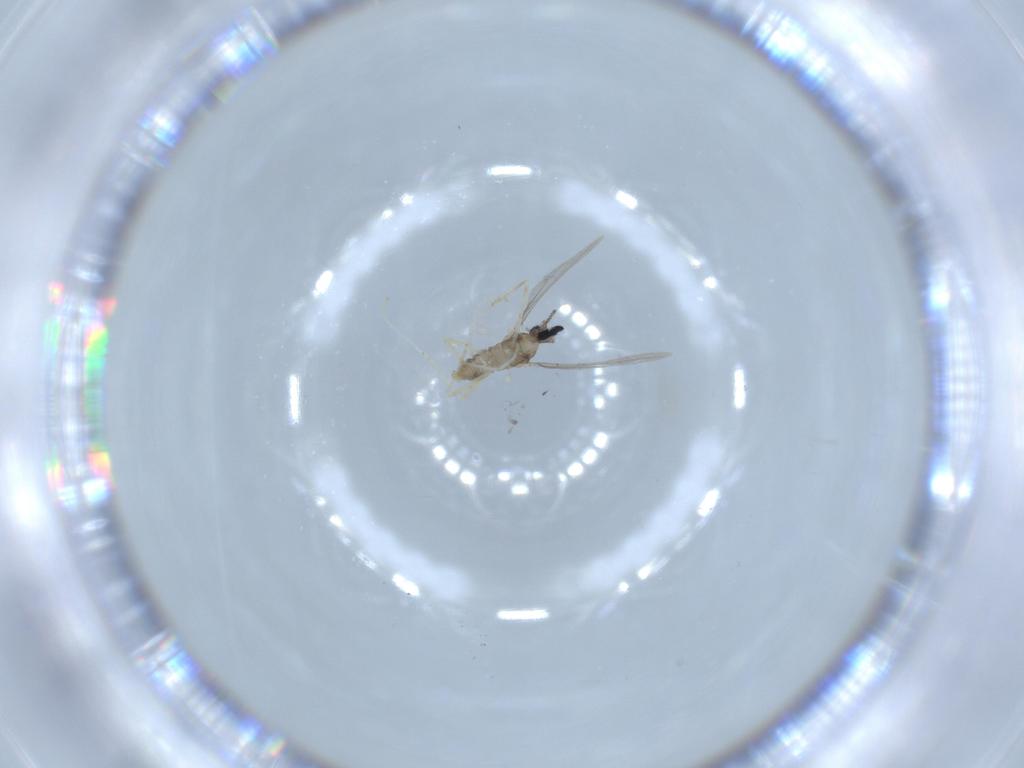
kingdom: Animalia
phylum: Arthropoda
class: Insecta
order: Diptera
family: Cecidomyiidae
